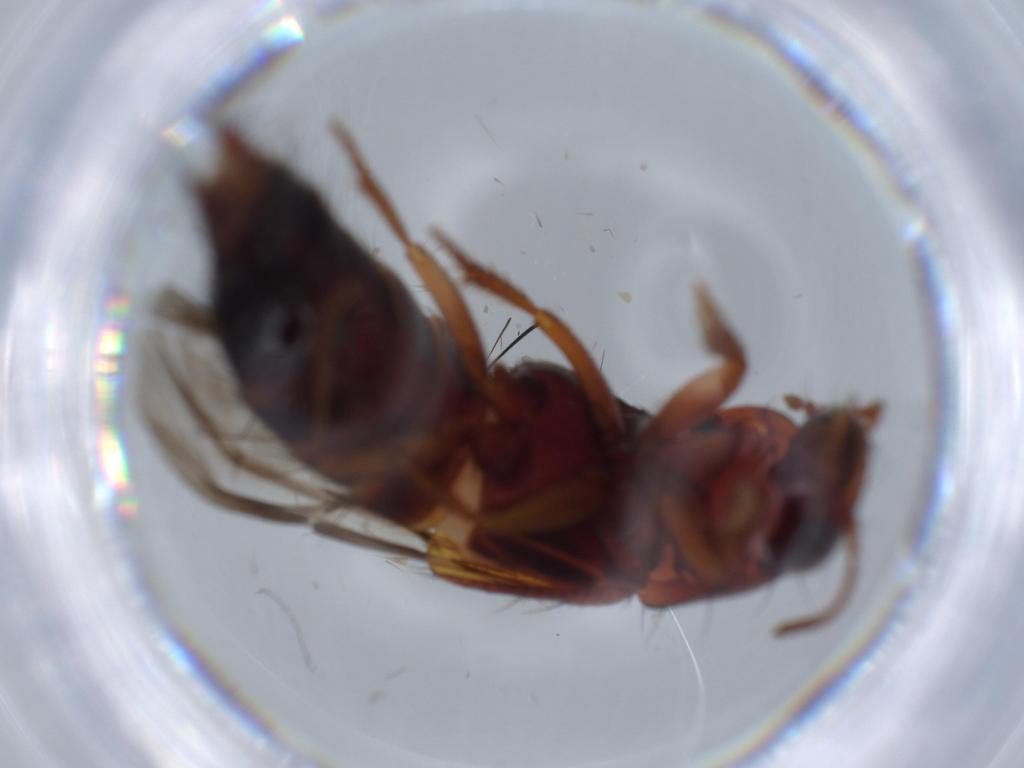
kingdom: Animalia
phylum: Arthropoda
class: Insecta
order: Coleoptera
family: Staphylinidae
